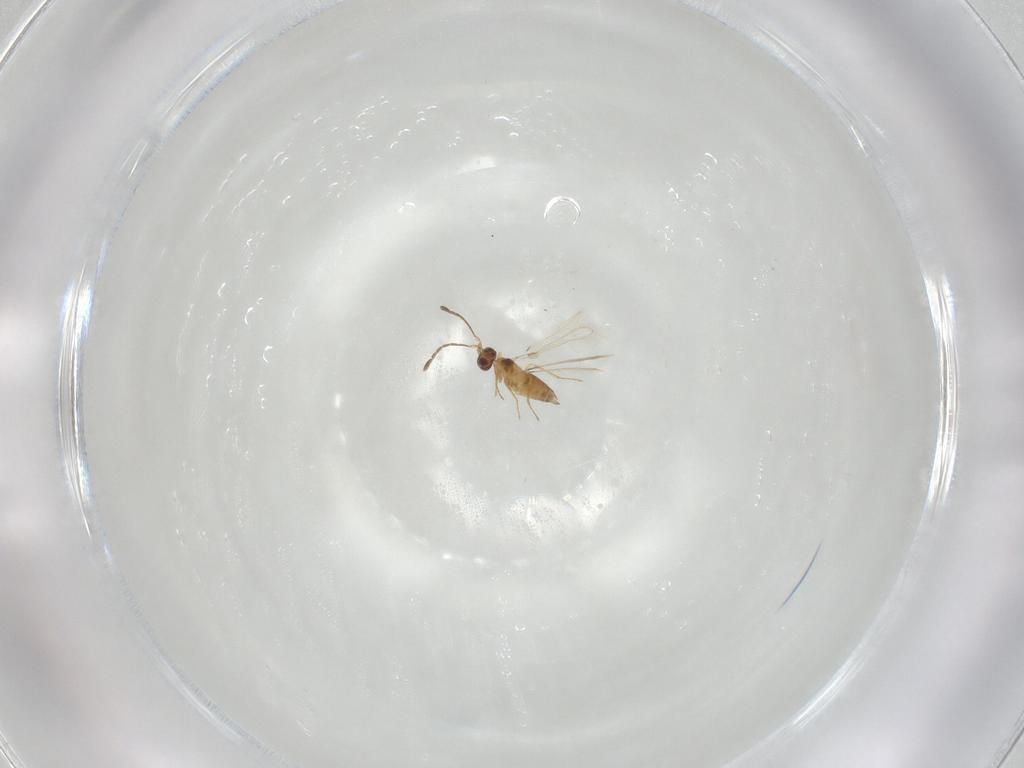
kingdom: Animalia
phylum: Arthropoda
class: Insecta
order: Hymenoptera
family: Mymaridae
